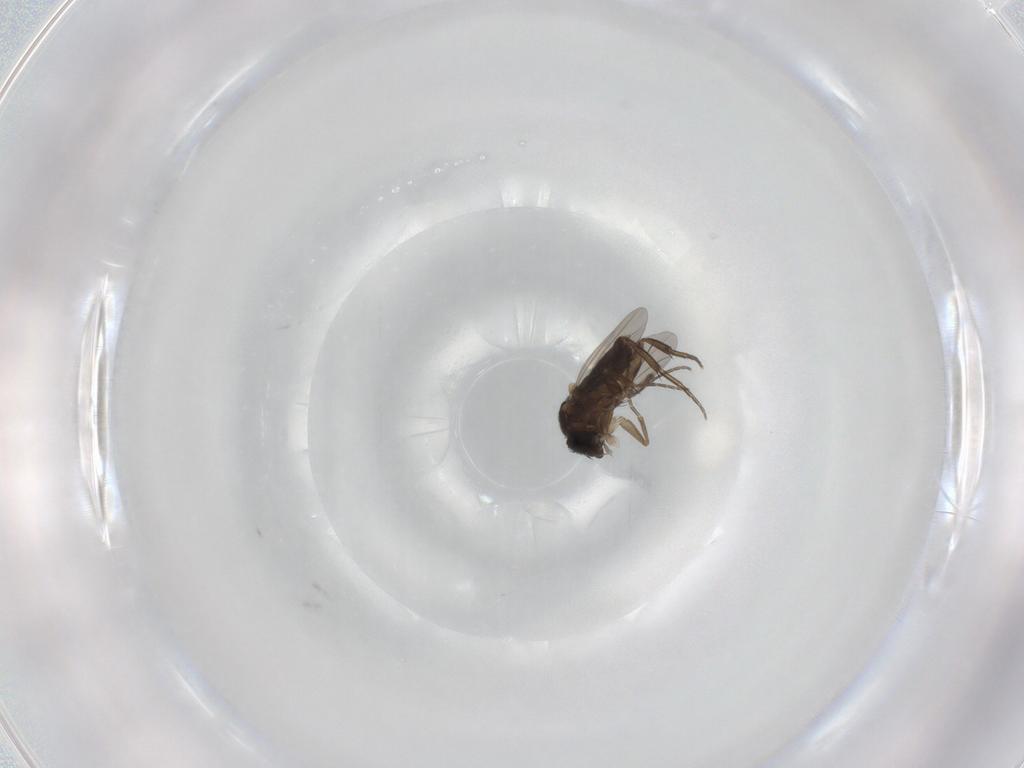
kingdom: Animalia
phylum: Arthropoda
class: Insecta
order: Diptera
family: Phoridae
